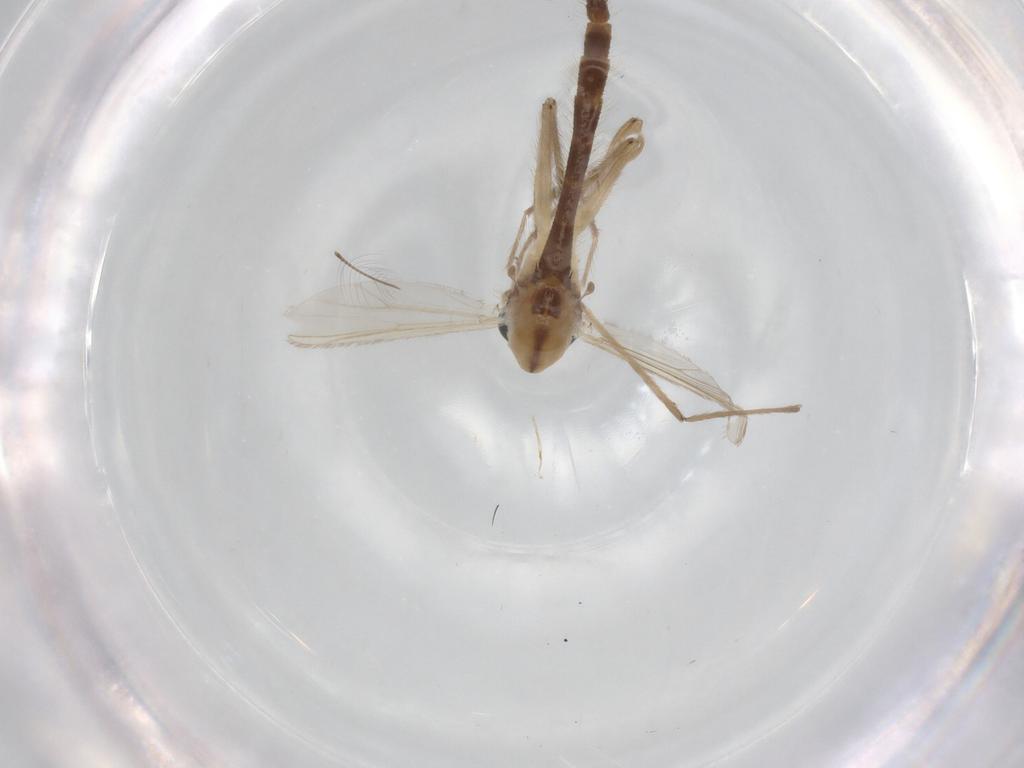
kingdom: Animalia
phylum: Arthropoda
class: Insecta
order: Diptera
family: Chironomidae
